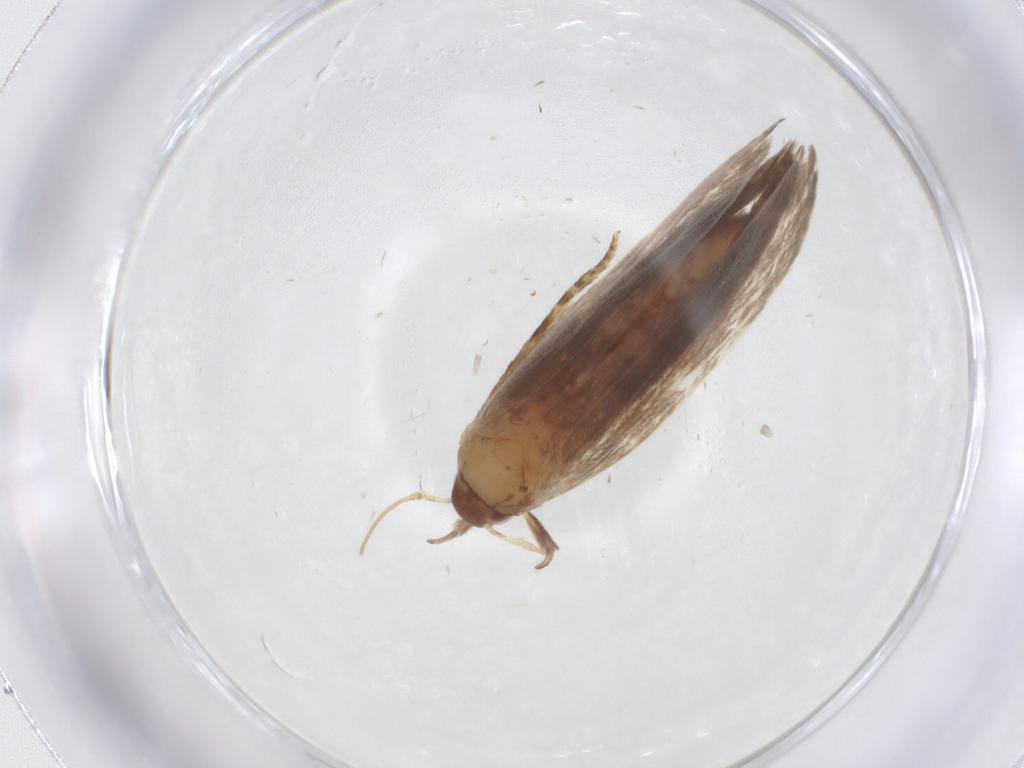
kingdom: Animalia
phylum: Arthropoda
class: Insecta
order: Lepidoptera
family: Gelechiidae
